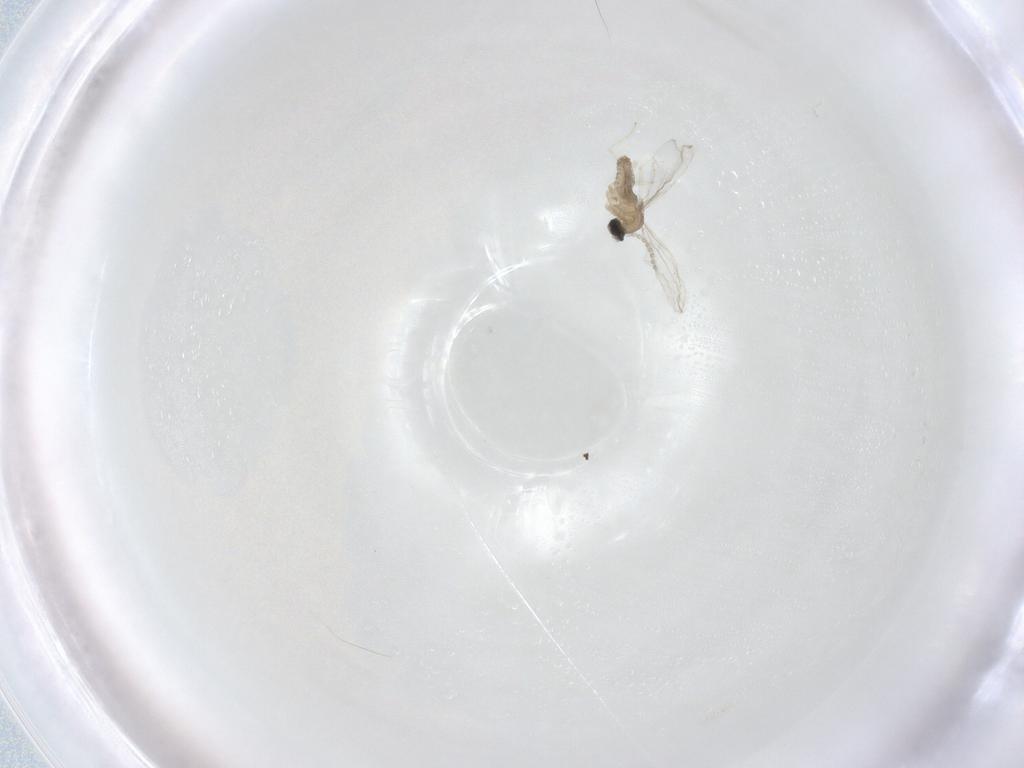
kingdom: Animalia
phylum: Arthropoda
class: Insecta
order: Diptera
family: Cecidomyiidae
